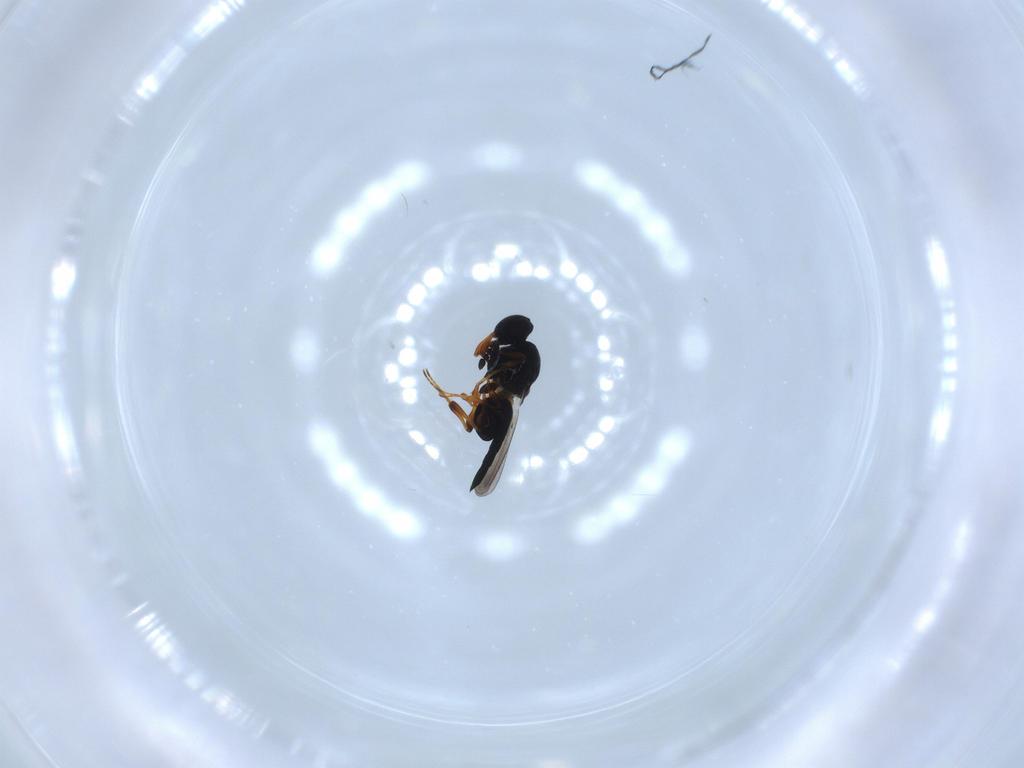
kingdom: Animalia
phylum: Arthropoda
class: Insecta
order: Hymenoptera
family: Platygastridae
